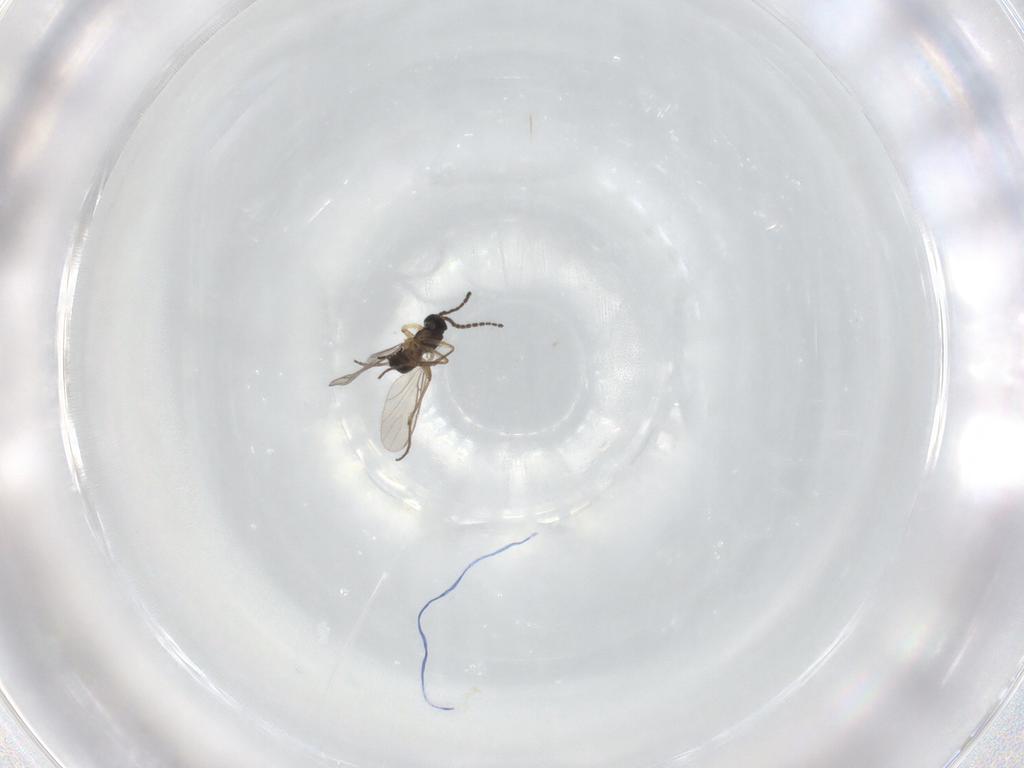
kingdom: Animalia
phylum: Arthropoda
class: Insecta
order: Diptera
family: Sciaridae
